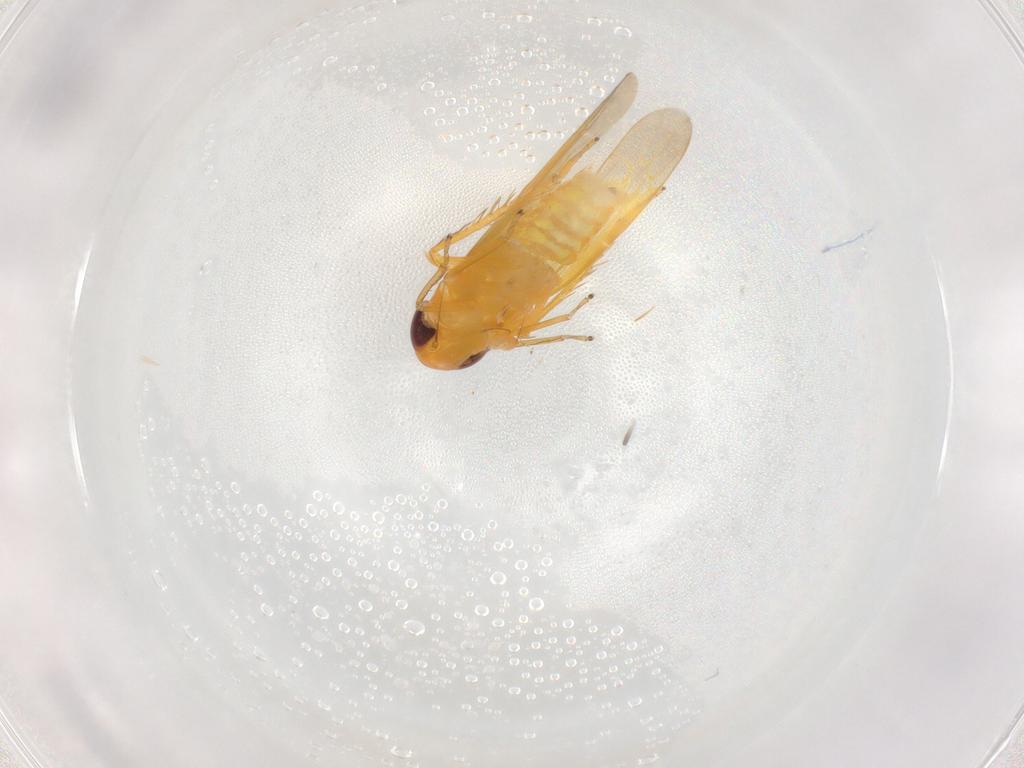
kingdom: Animalia
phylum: Arthropoda
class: Insecta
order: Hemiptera
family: Cicadellidae
